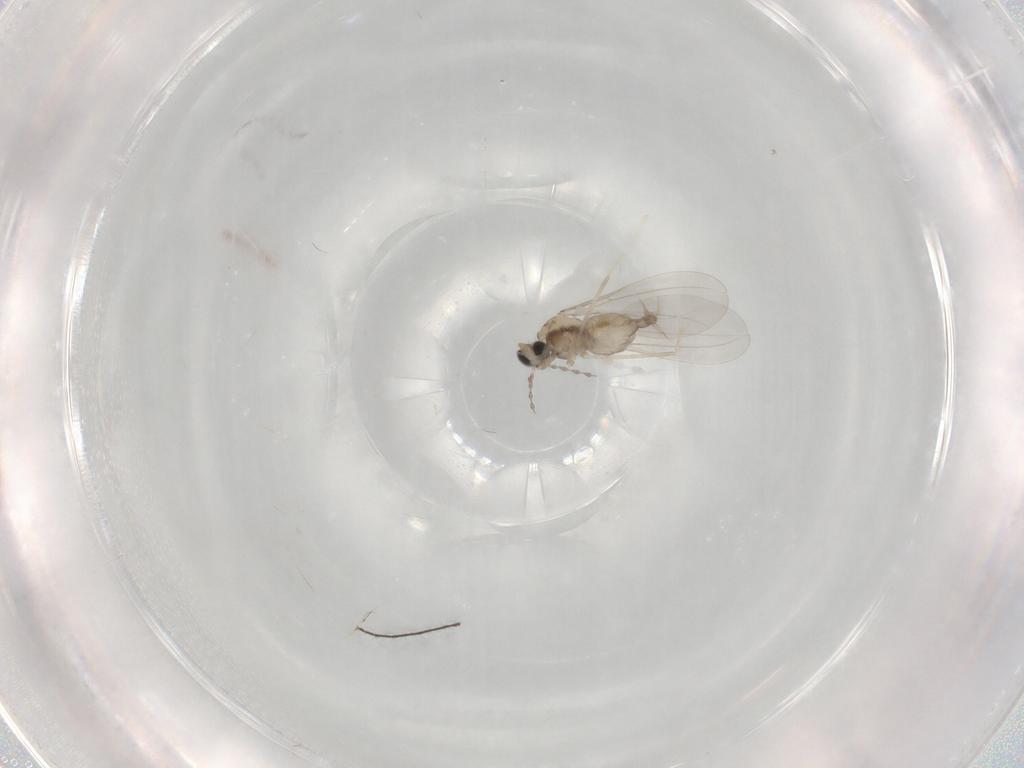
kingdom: Animalia
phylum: Arthropoda
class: Insecta
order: Diptera
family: Cecidomyiidae
